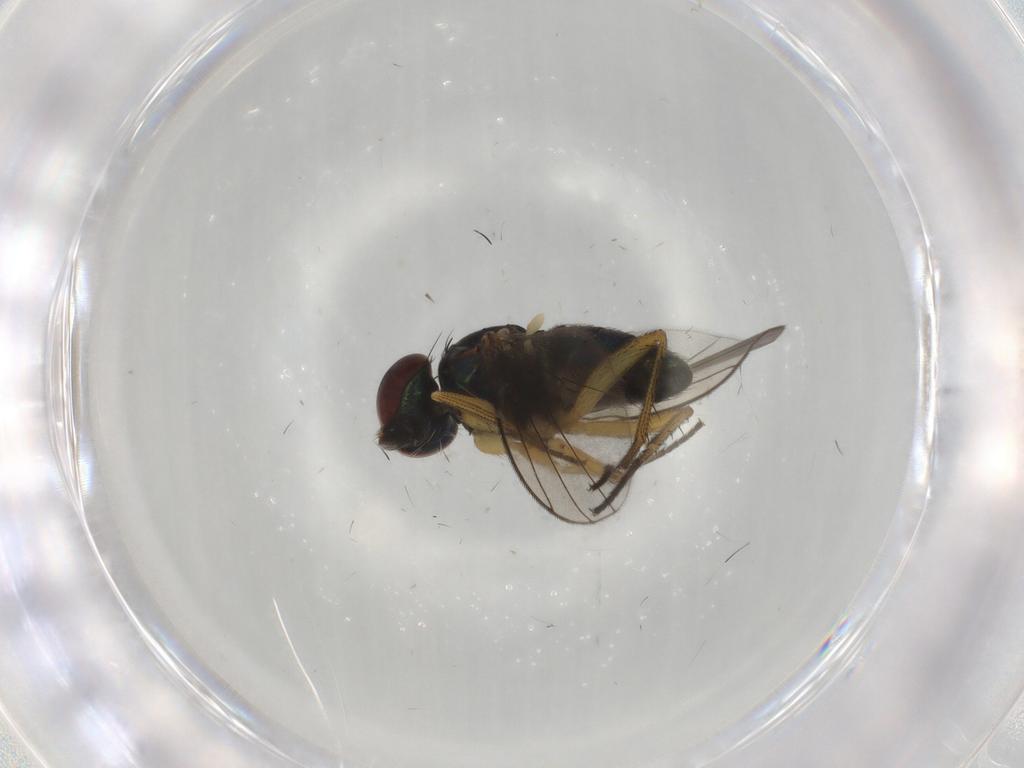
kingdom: Animalia
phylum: Arthropoda
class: Insecta
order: Diptera
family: Dolichopodidae
